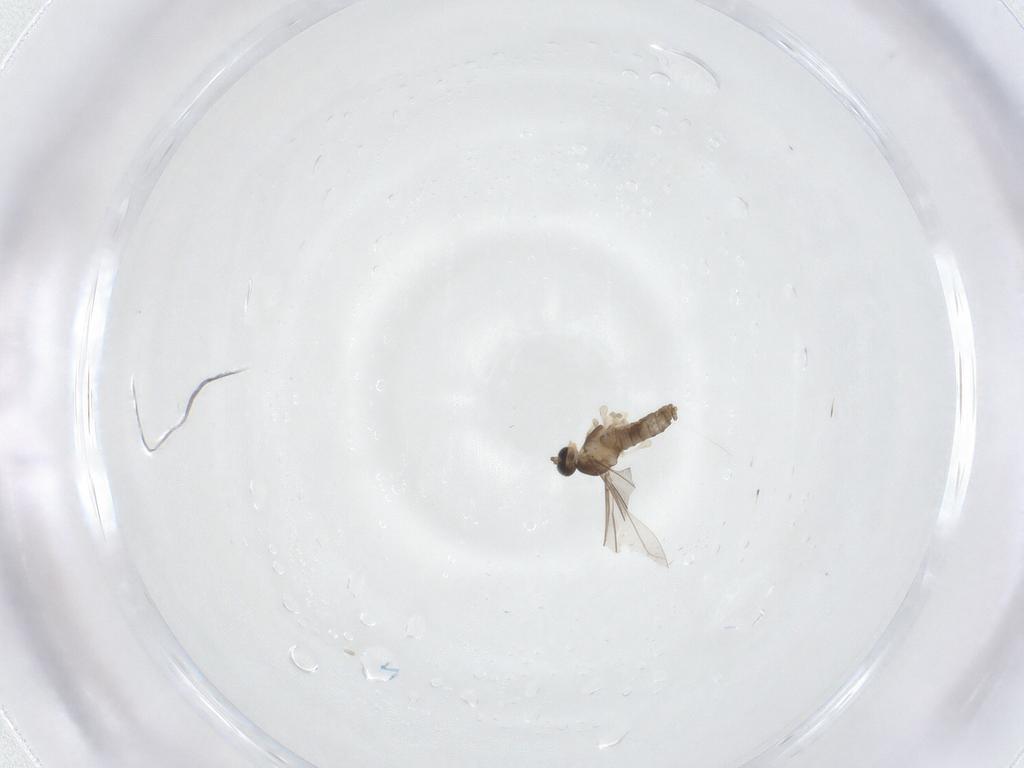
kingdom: Animalia
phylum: Arthropoda
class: Insecta
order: Diptera
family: Cecidomyiidae
